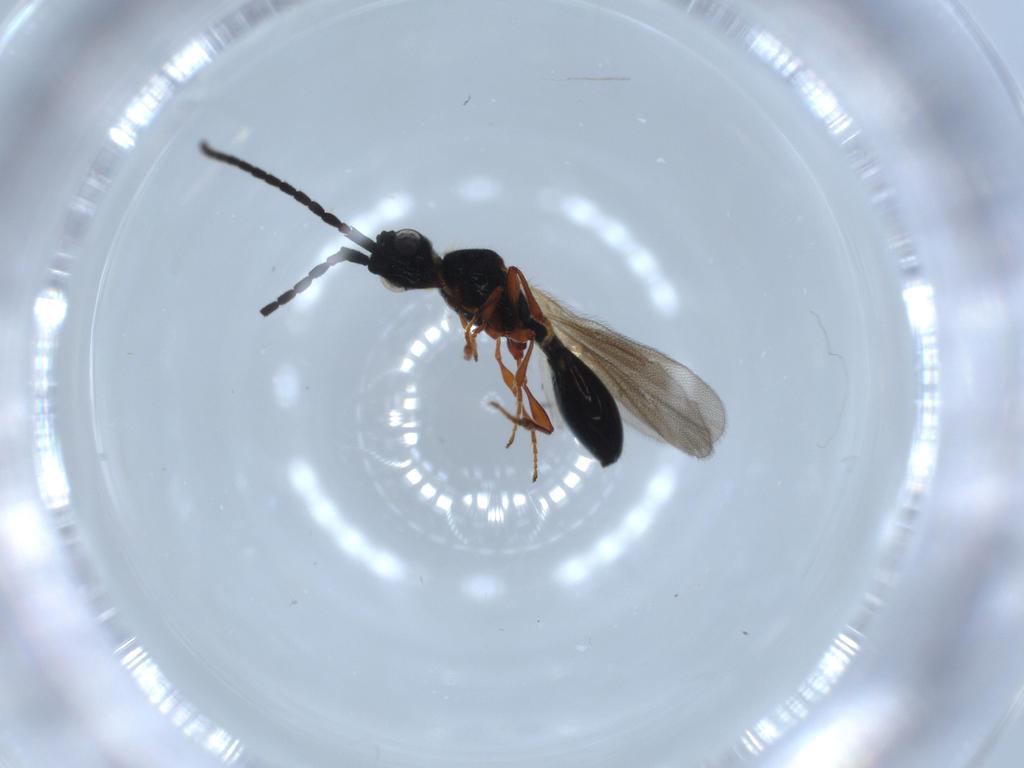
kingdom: Animalia
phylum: Arthropoda
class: Insecta
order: Hymenoptera
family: Diapriidae
